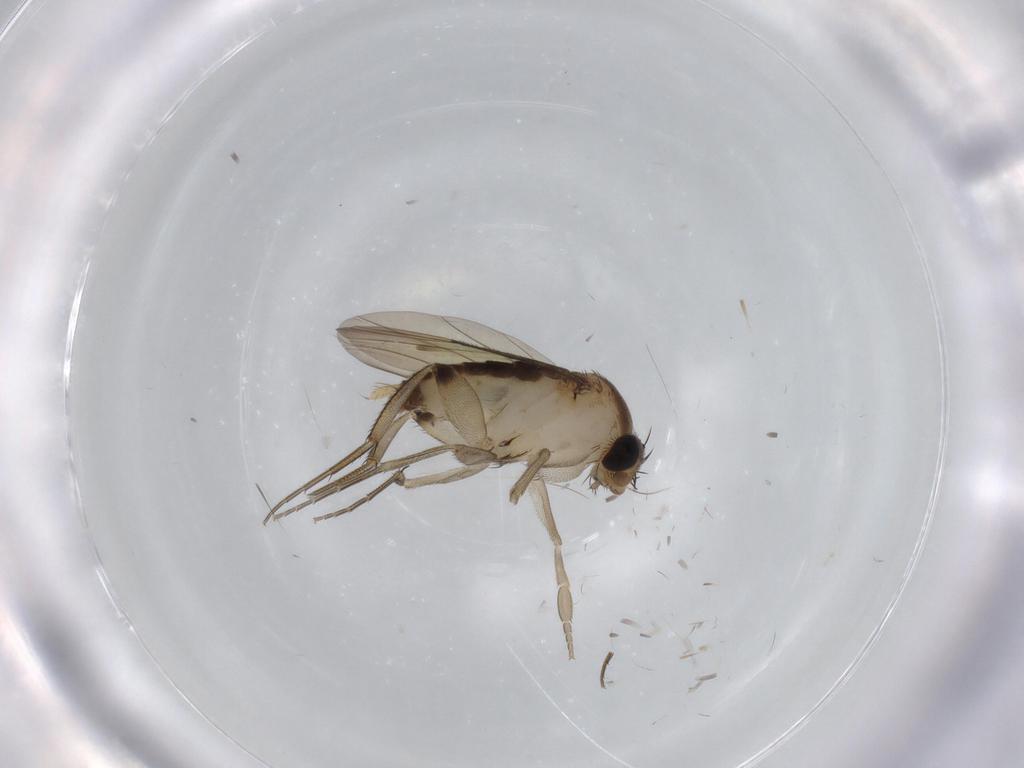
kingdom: Animalia
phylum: Arthropoda
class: Insecta
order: Diptera
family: Phoridae
